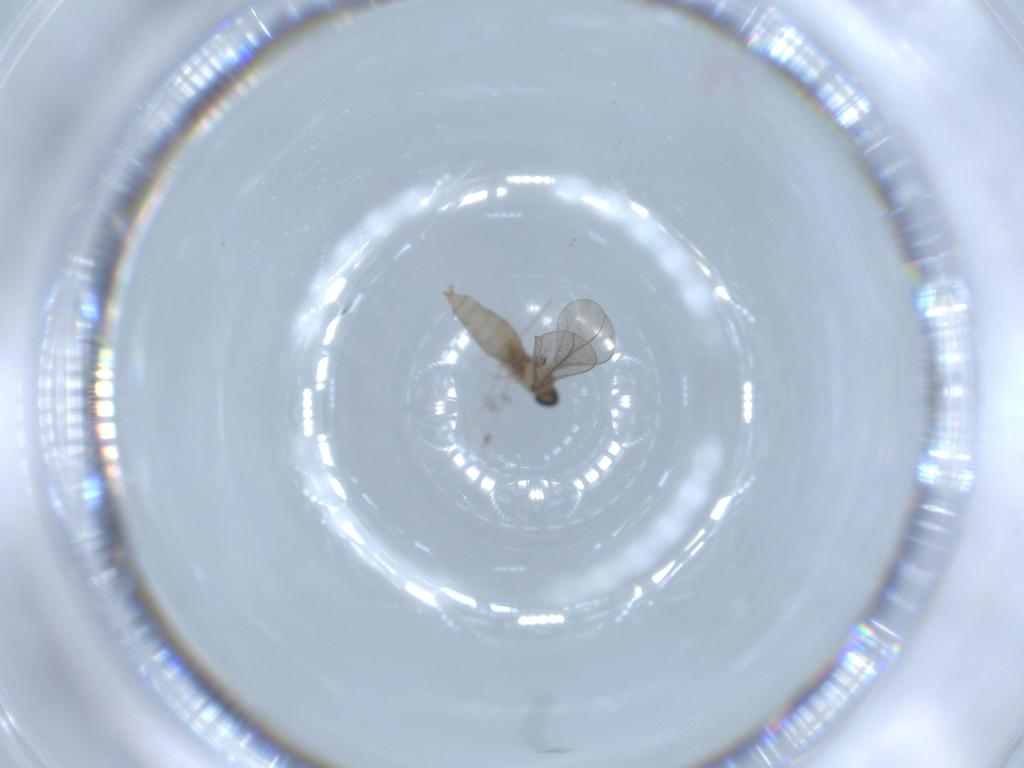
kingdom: Animalia
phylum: Arthropoda
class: Insecta
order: Diptera
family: Cecidomyiidae
